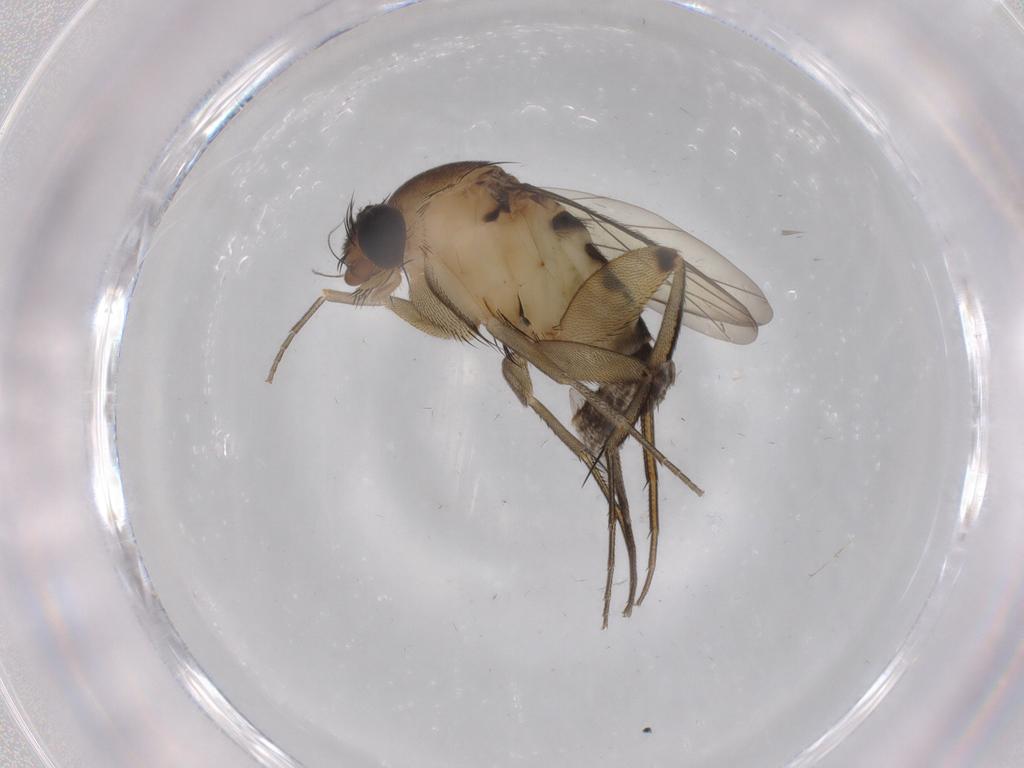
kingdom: Animalia
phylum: Arthropoda
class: Insecta
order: Diptera
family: Phoridae
